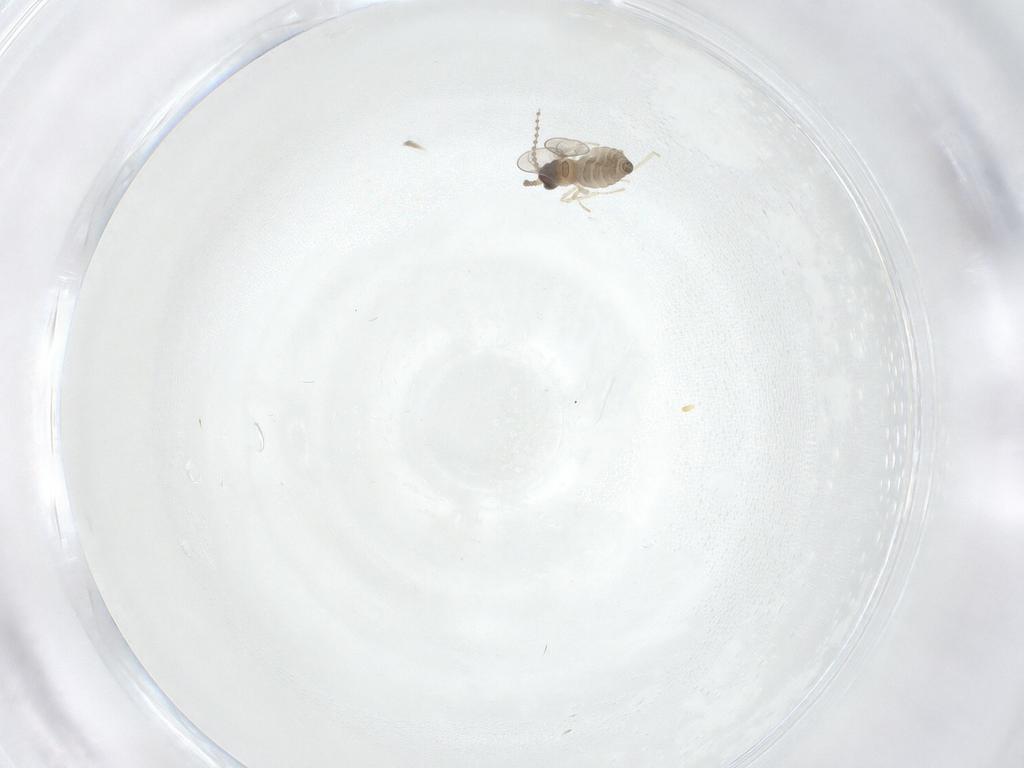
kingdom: Animalia
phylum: Arthropoda
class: Insecta
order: Diptera
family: Cecidomyiidae
